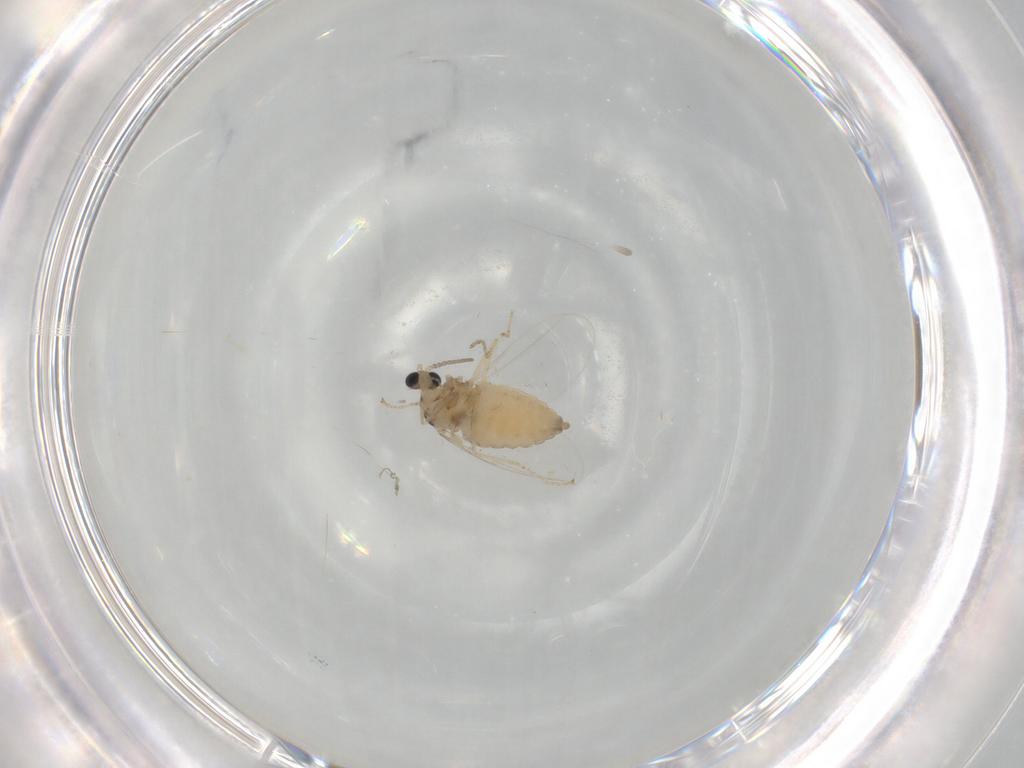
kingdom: Animalia
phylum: Arthropoda
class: Insecta
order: Diptera
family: Cecidomyiidae
